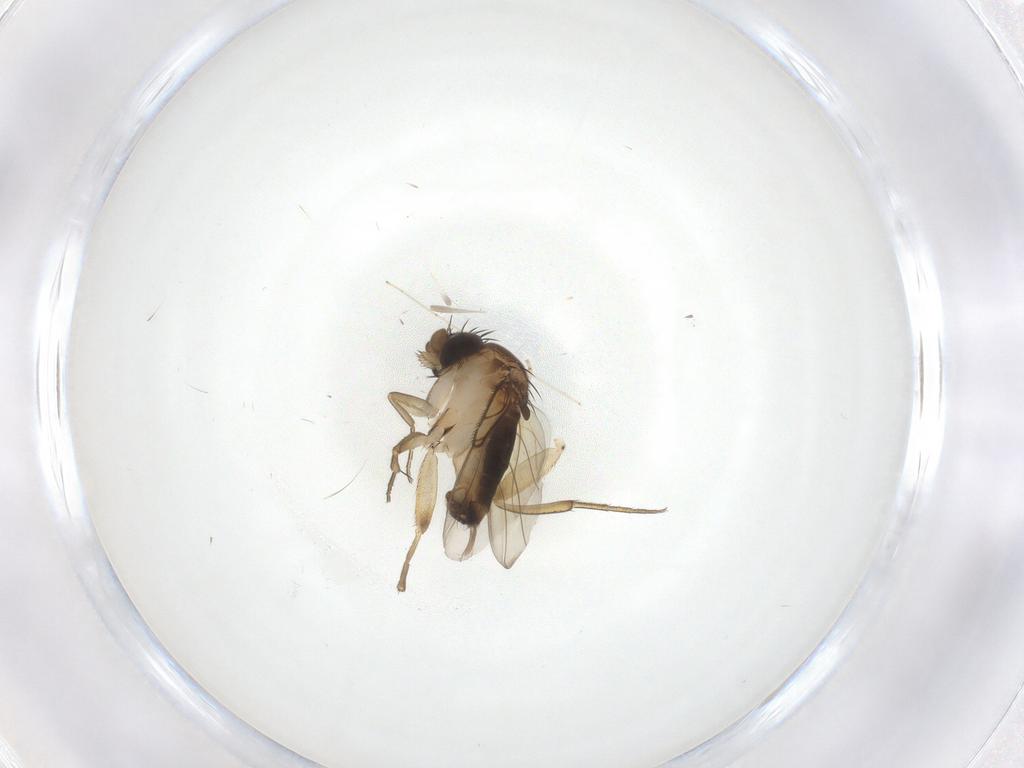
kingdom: Animalia
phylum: Arthropoda
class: Insecta
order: Diptera
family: Phoridae
